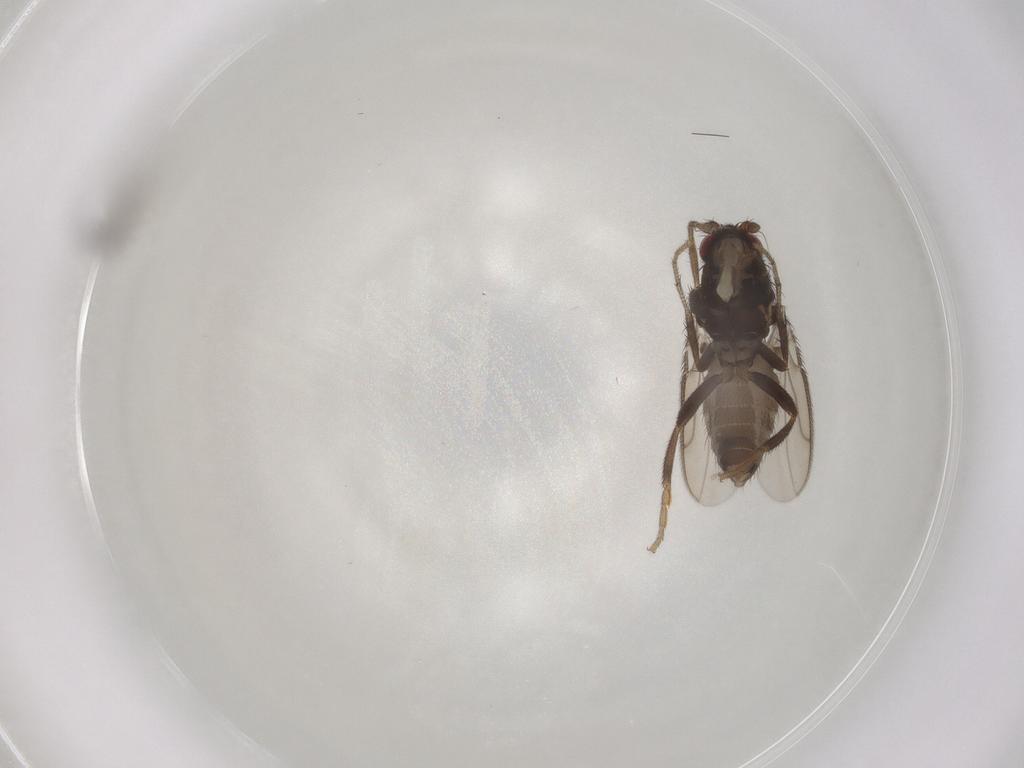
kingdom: Animalia
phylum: Arthropoda
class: Insecta
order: Diptera
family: Sphaeroceridae
